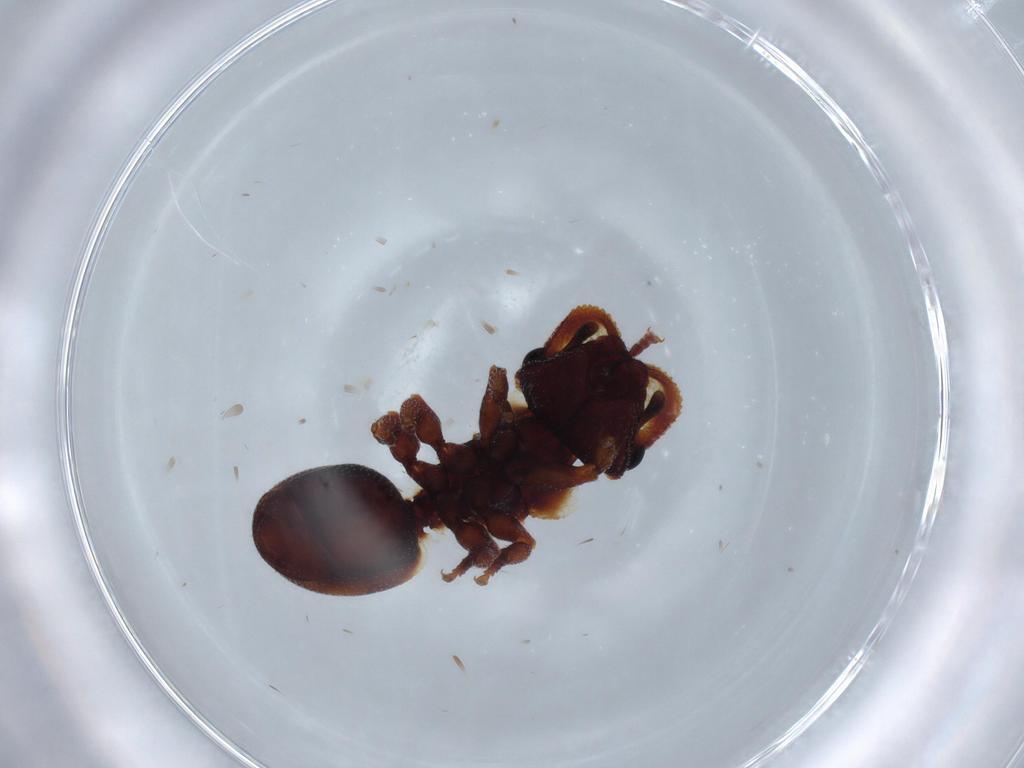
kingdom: Animalia
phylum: Arthropoda
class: Insecta
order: Hymenoptera
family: Formicidae
